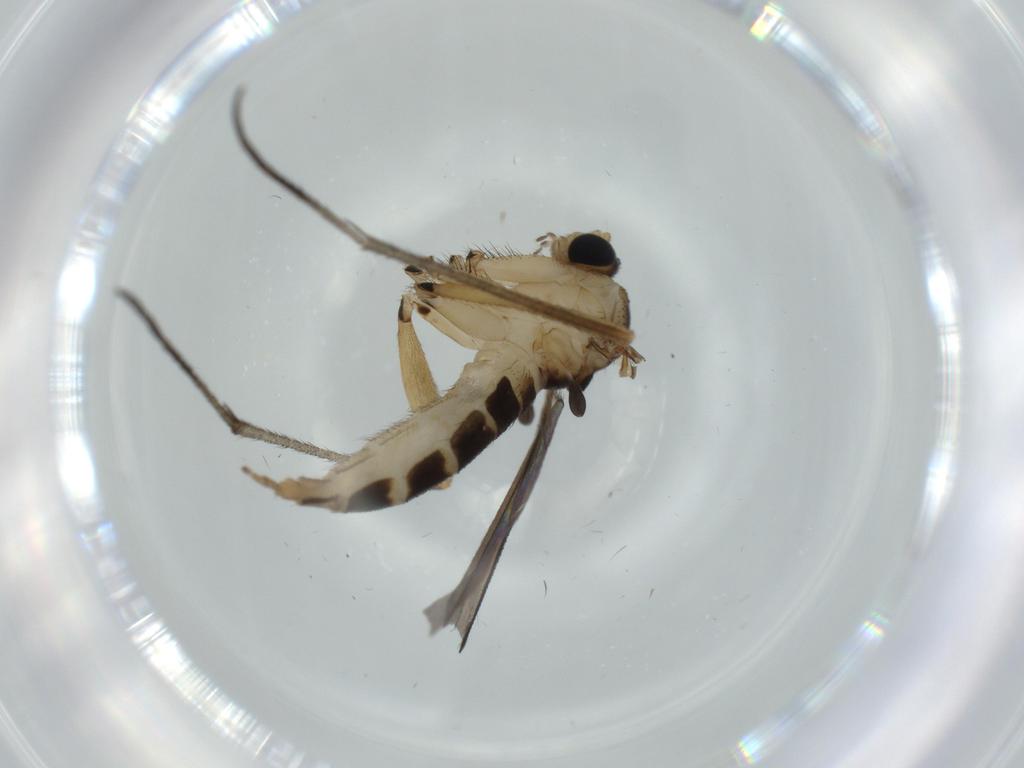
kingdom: Animalia
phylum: Arthropoda
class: Insecta
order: Diptera
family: Sciaridae
